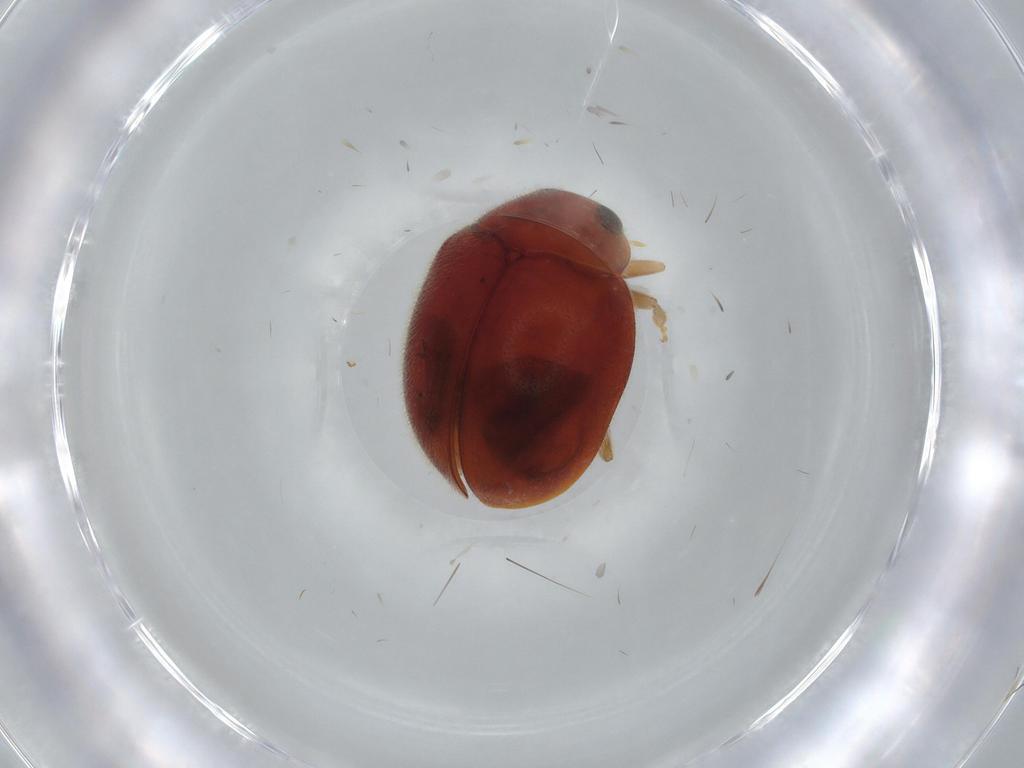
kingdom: Animalia
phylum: Arthropoda
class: Insecta
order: Coleoptera
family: Coccinellidae
